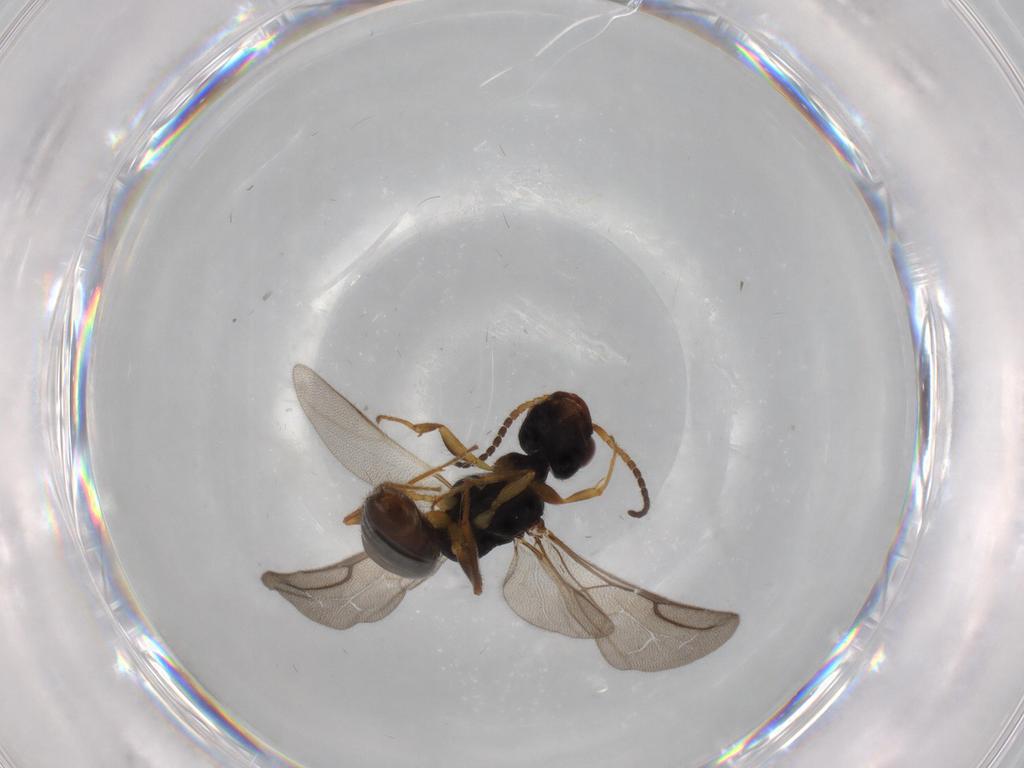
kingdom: Animalia
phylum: Arthropoda
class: Insecta
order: Hymenoptera
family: Bethylidae
